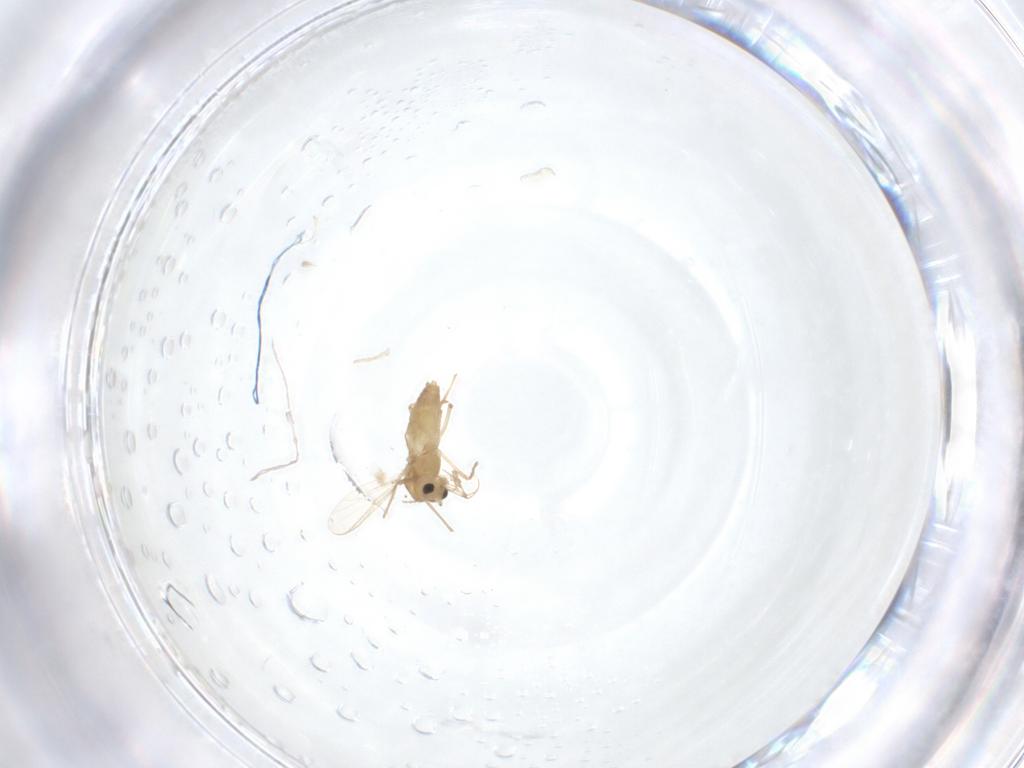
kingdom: Animalia
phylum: Arthropoda
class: Insecta
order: Diptera
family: Chironomidae
